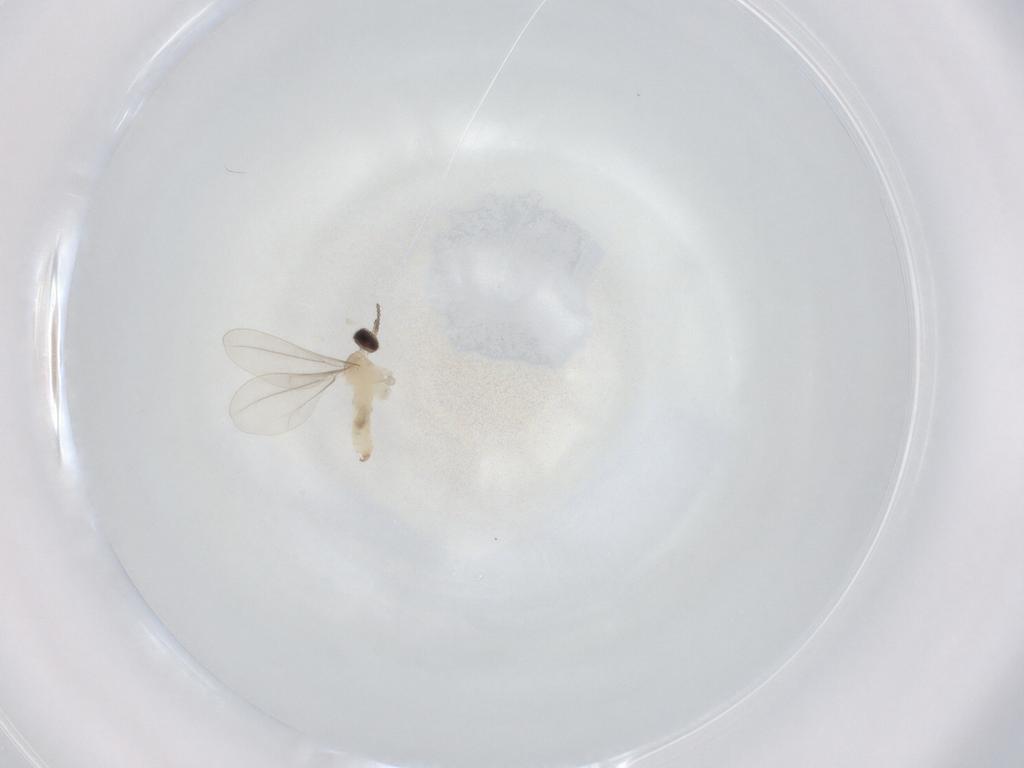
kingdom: Animalia
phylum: Arthropoda
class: Insecta
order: Diptera
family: Cecidomyiidae
